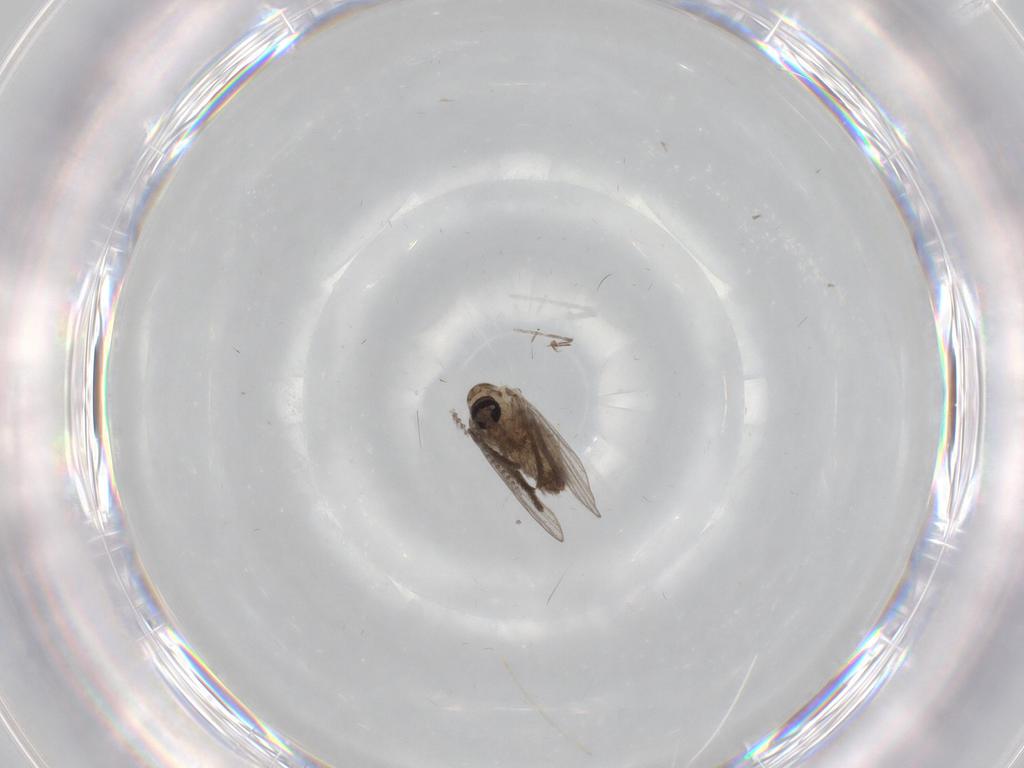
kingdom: Animalia
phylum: Arthropoda
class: Insecta
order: Diptera
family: Psychodidae
